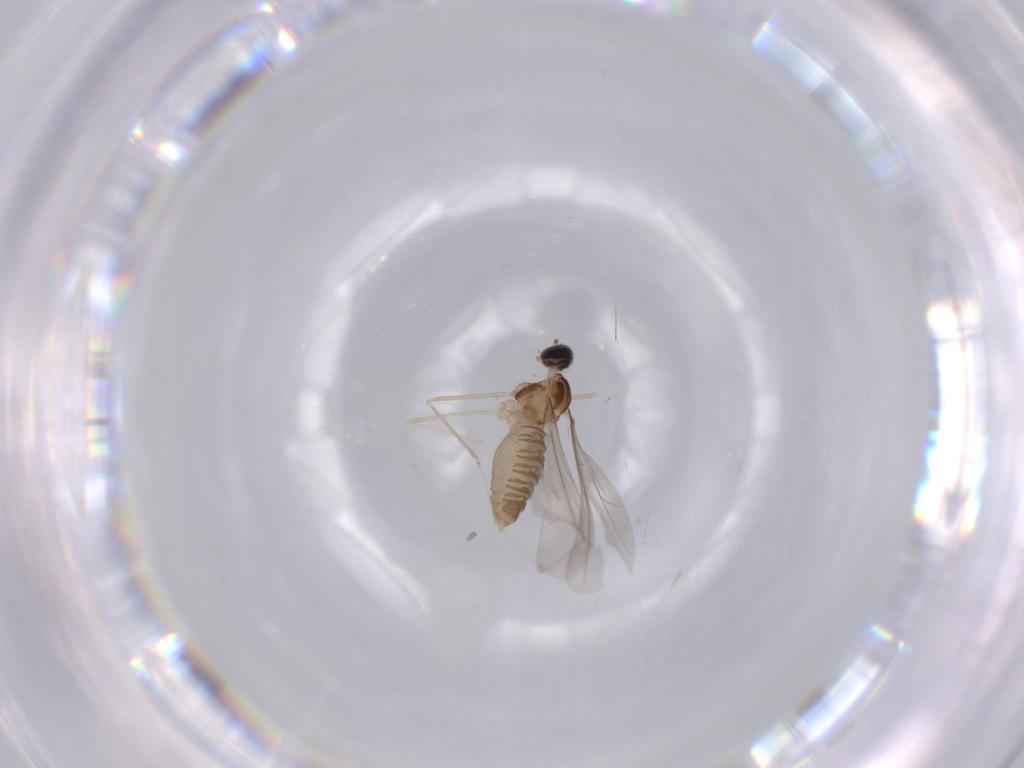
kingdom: Animalia
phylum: Arthropoda
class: Insecta
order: Diptera
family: Cecidomyiidae
